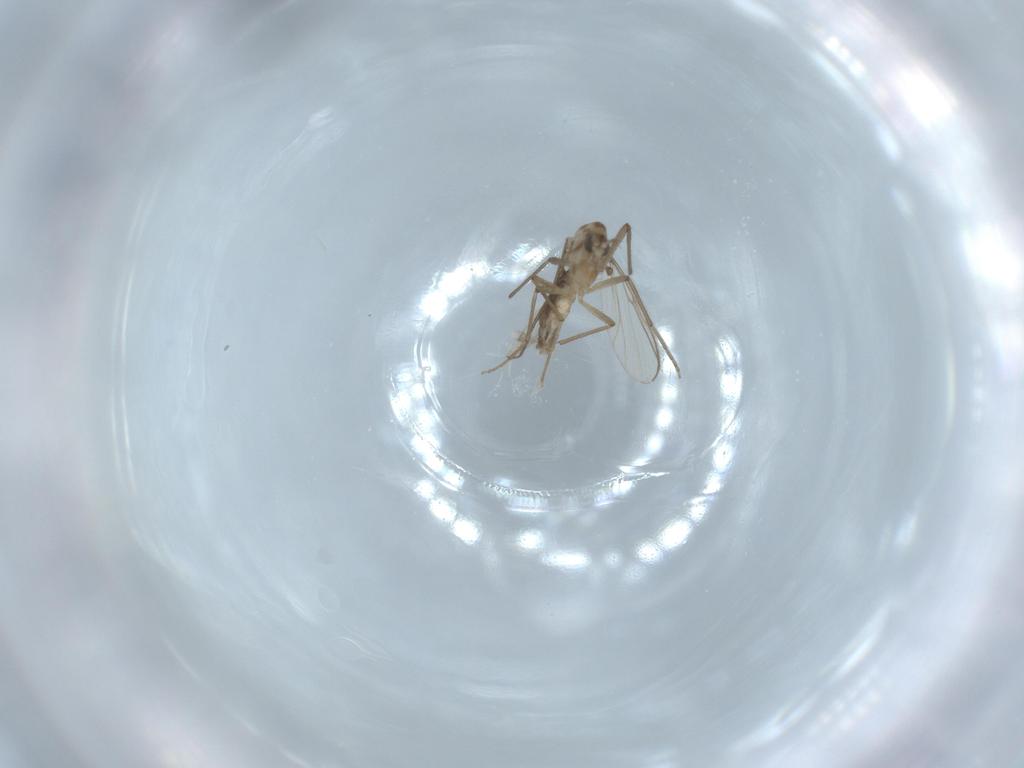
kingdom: Animalia
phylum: Arthropoda
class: Insecta
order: Diptera
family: Chironomidae
